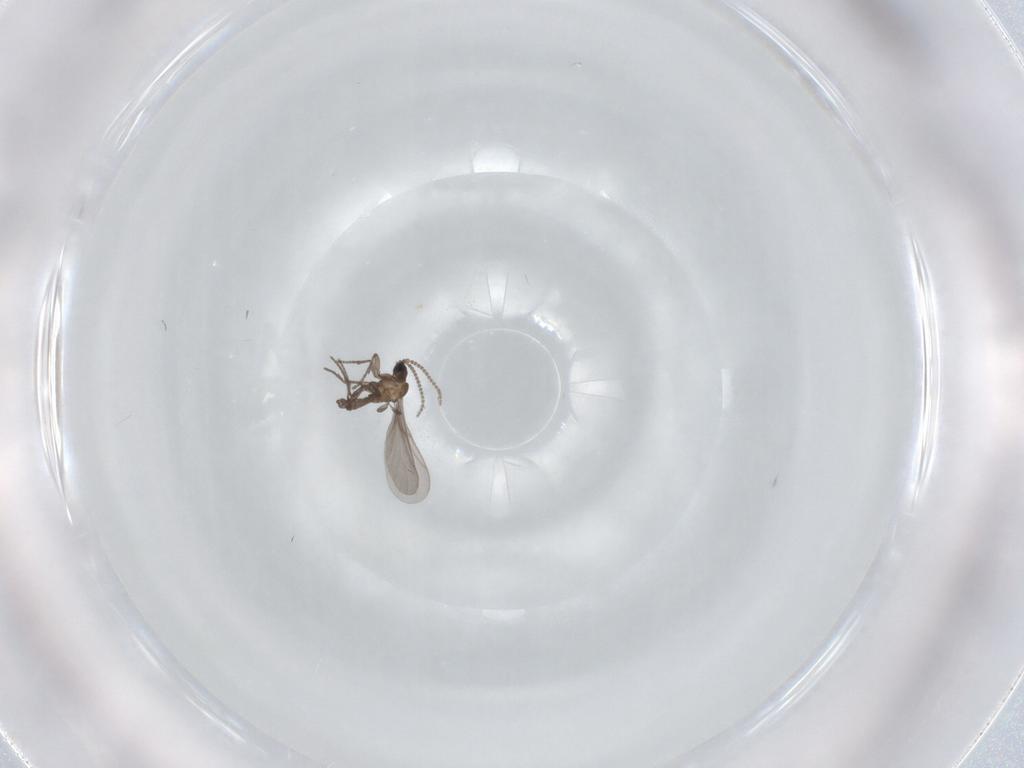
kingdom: Animalia
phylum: Arthropoda
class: Insecta
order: Diptera
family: Cecidomyiidae
